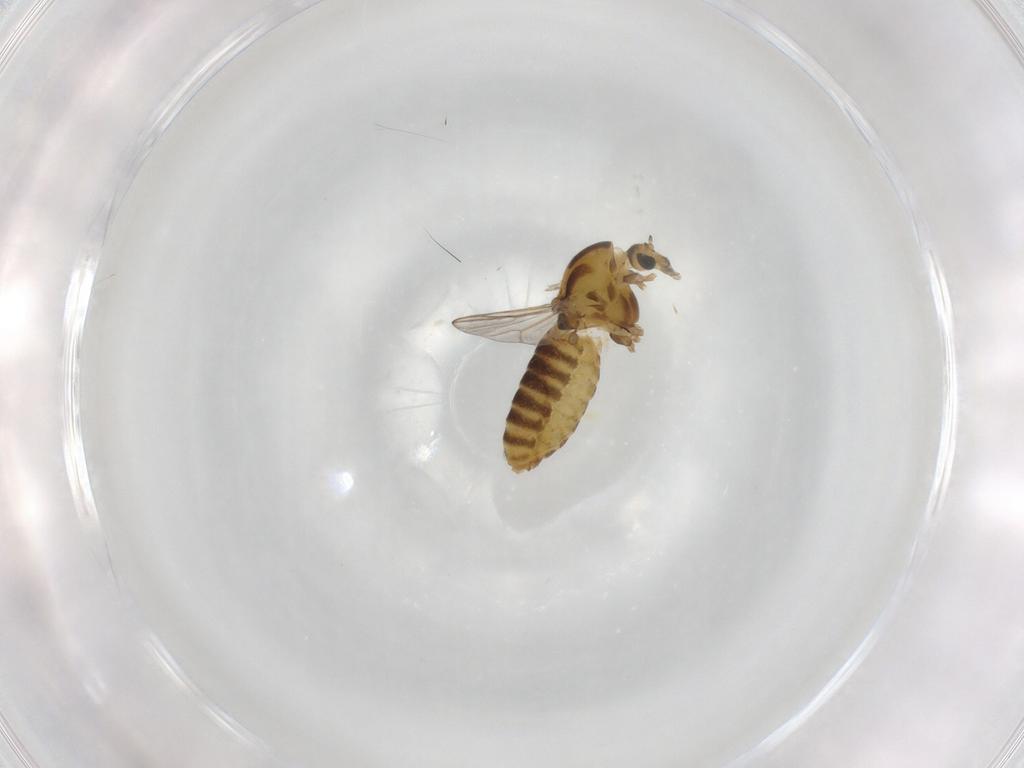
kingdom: Animalia
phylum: Arthropoda
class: Insecta
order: Diptera
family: Chironomidae
